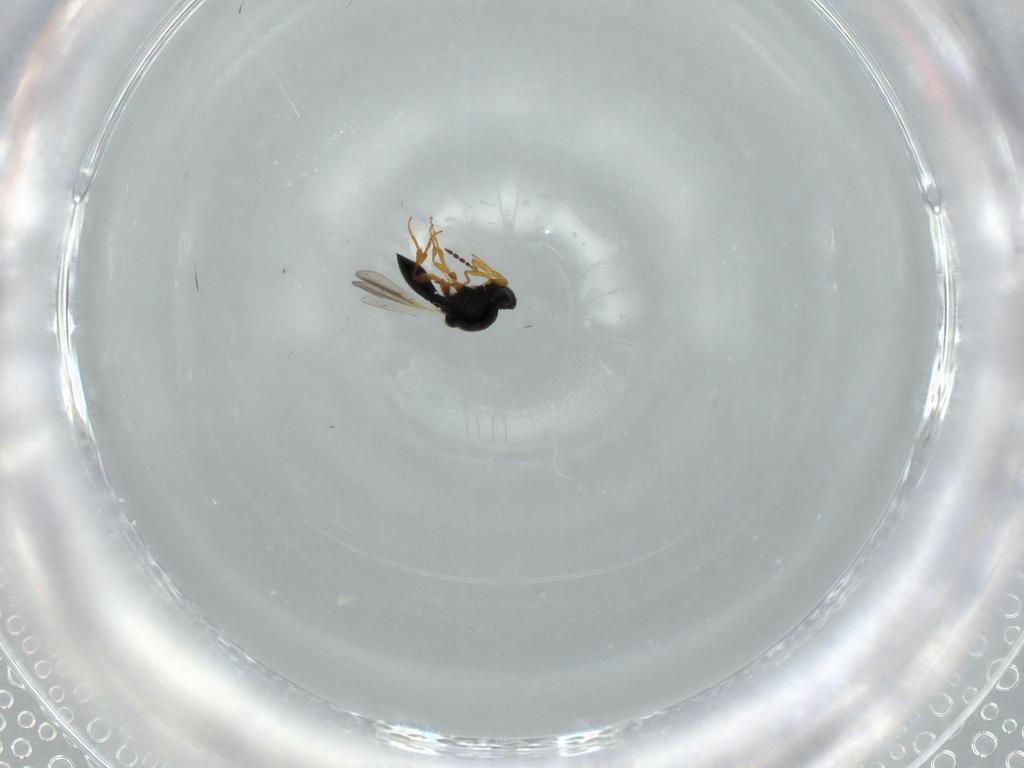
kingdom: Animalia
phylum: Arthropoda
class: Insecta
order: Hymenoptera
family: Platygastridae
